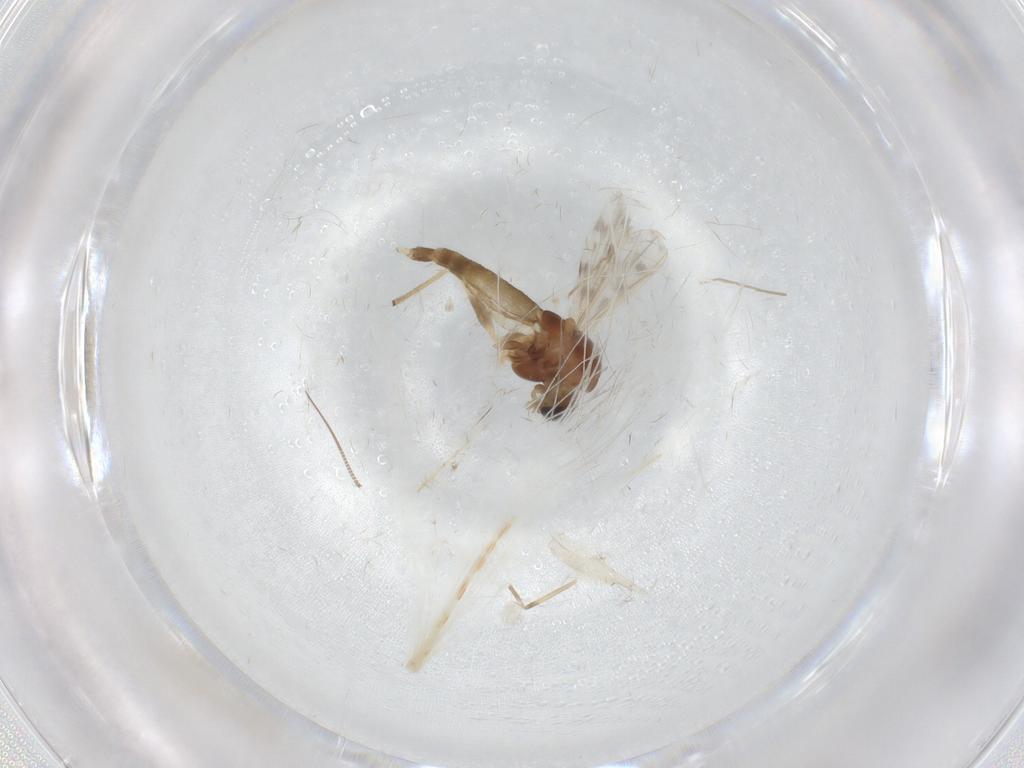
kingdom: Animalia
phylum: Arthropoda
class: Insecta
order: Diptera
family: Chironomidae
